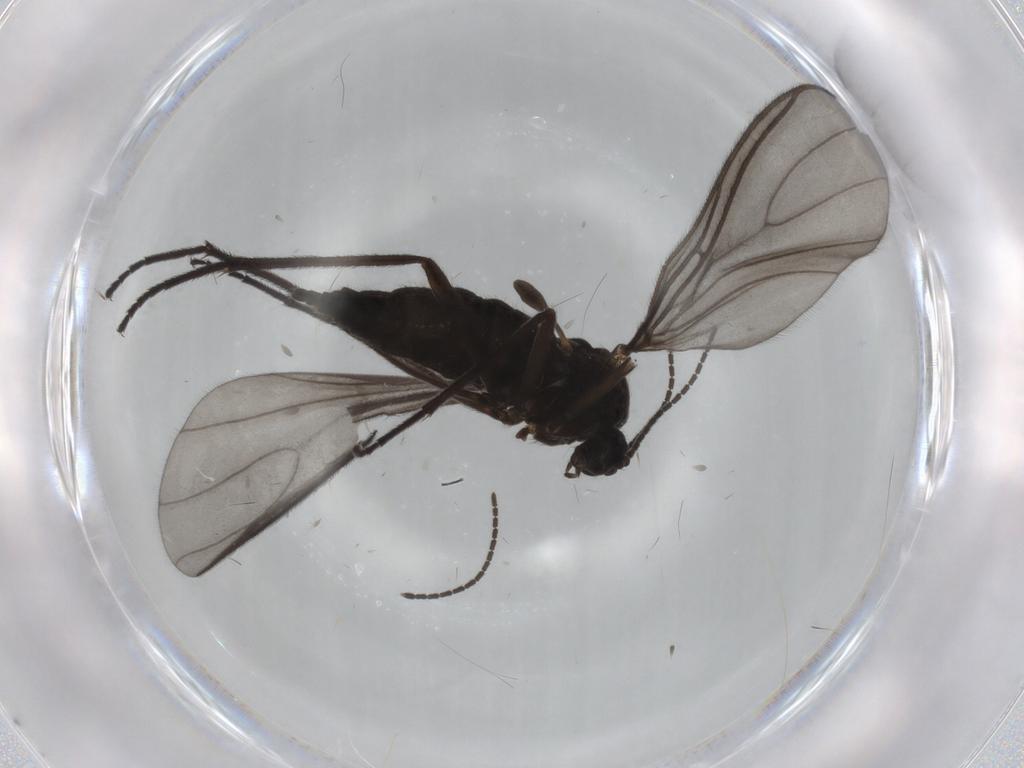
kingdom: Animalia
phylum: Arthropoda
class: Insecta
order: Diptera
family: Sciaridae
